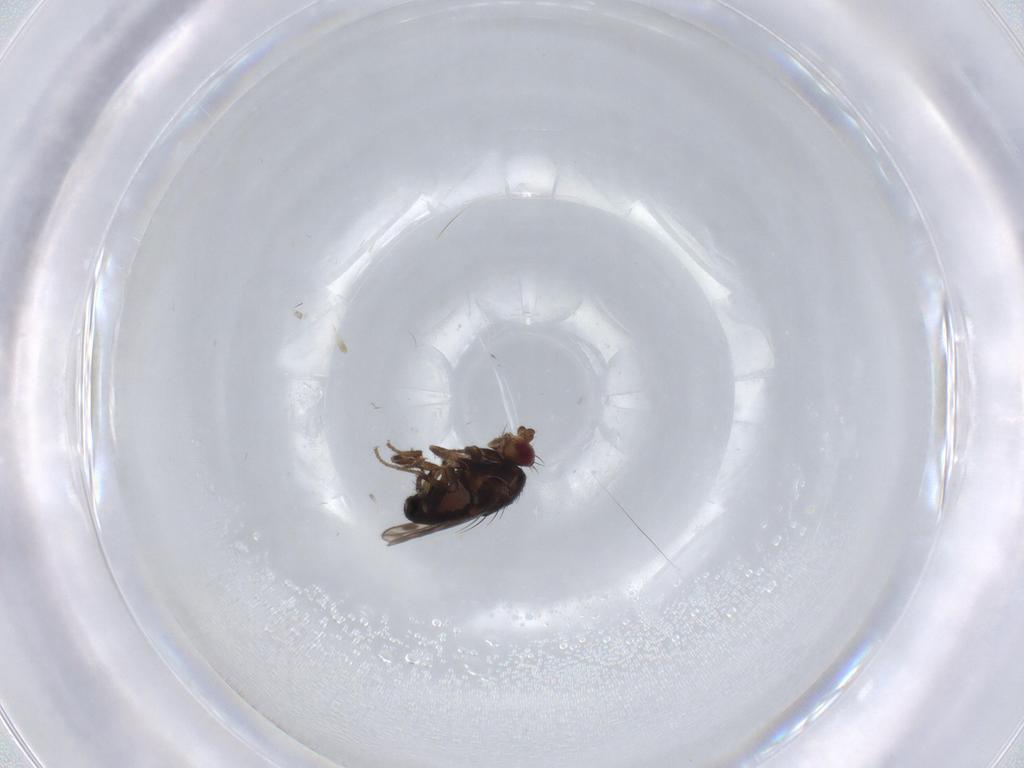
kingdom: Animalia
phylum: Arthropoda
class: Insecta
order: Diptera
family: Sphaeroceridae
